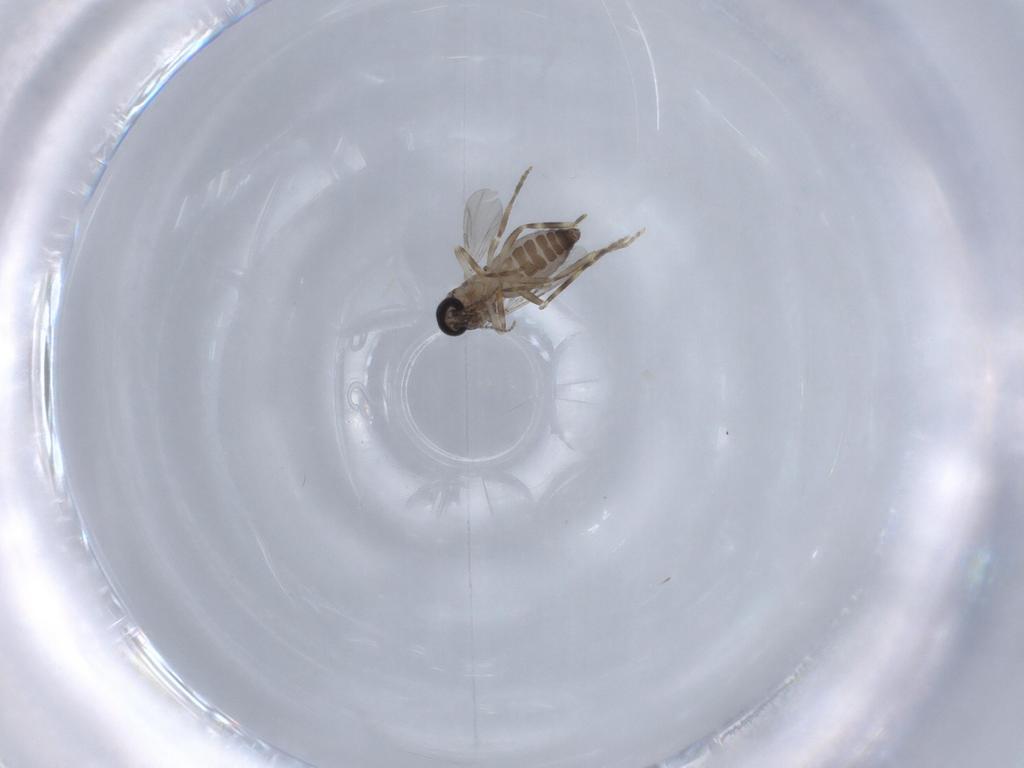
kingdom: Animalia
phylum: Arthropoda
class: Insecta
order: Diptera
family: Ceratopogonidae
